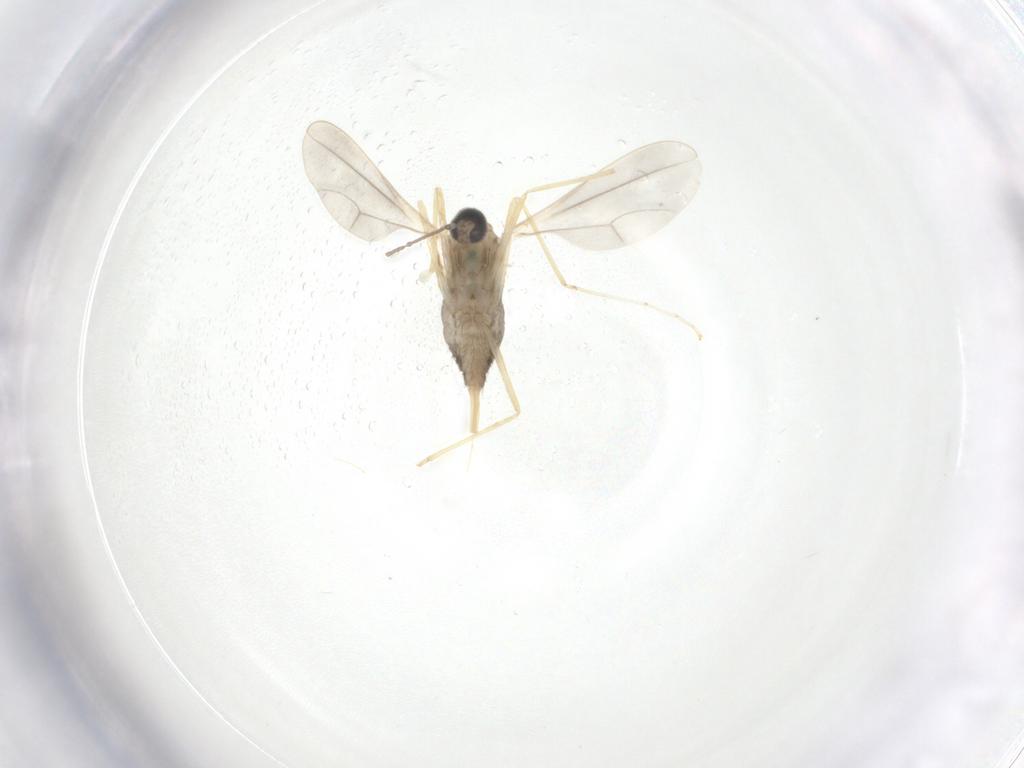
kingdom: Animalia
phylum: Arthropoda
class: Insecta
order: Diptera
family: Cecidomyiidae
